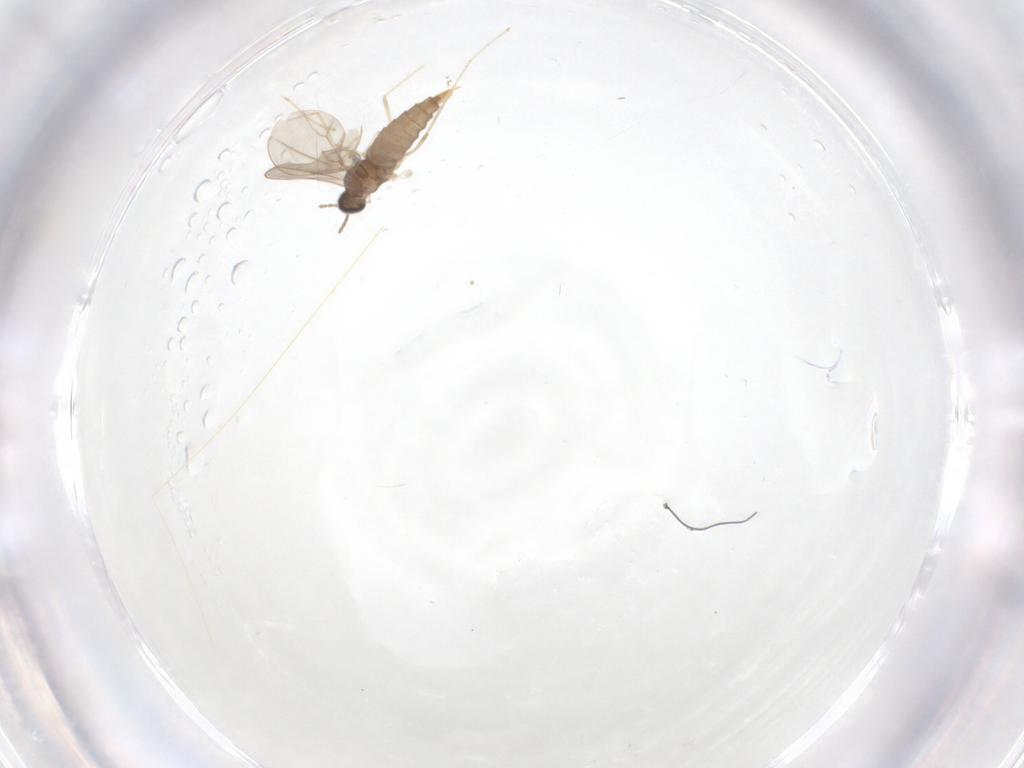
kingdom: Animalia
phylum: Arthropoda
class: Insecta
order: Diptera
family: Cecidomyiidae
